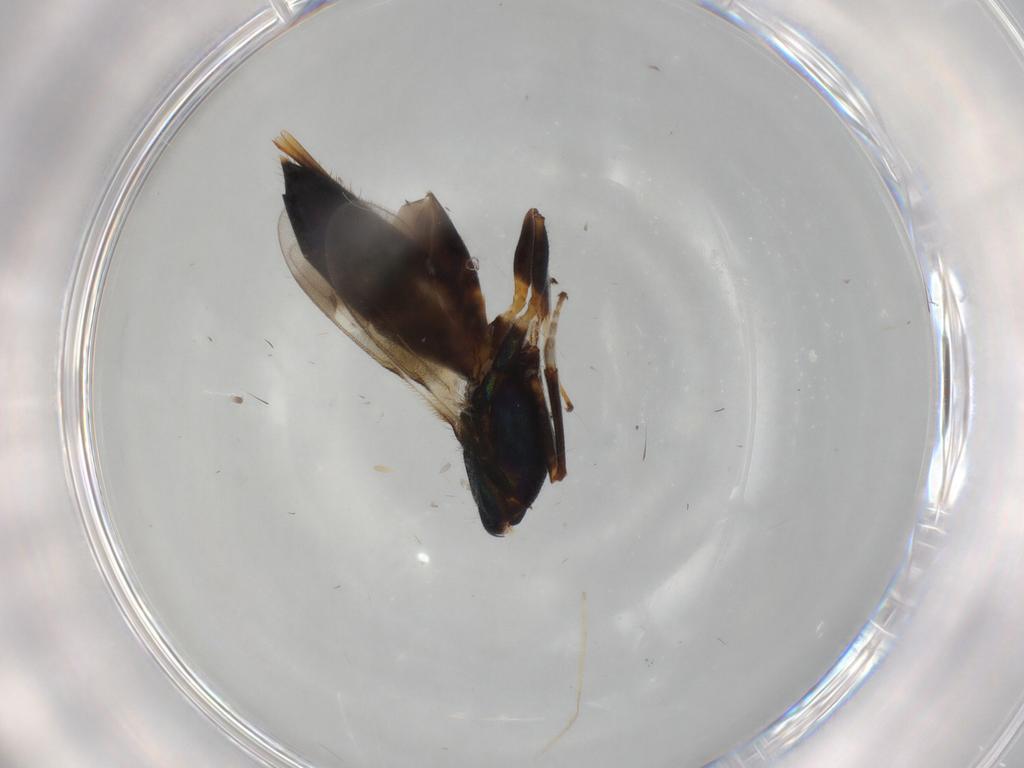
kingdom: Animalia
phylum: Arthropoda
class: Insecta
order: Hymenoptera
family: Eupelmidae
